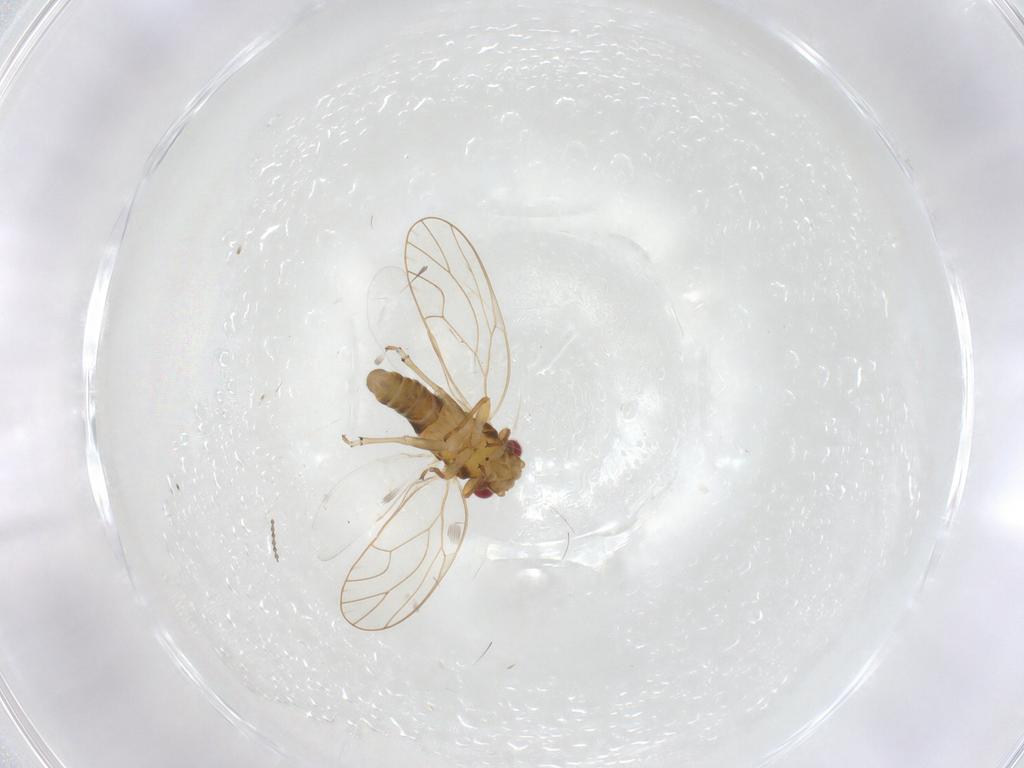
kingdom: Animalia
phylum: Arthropoda
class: Insecta
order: Hemiptera
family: Psyllidae
